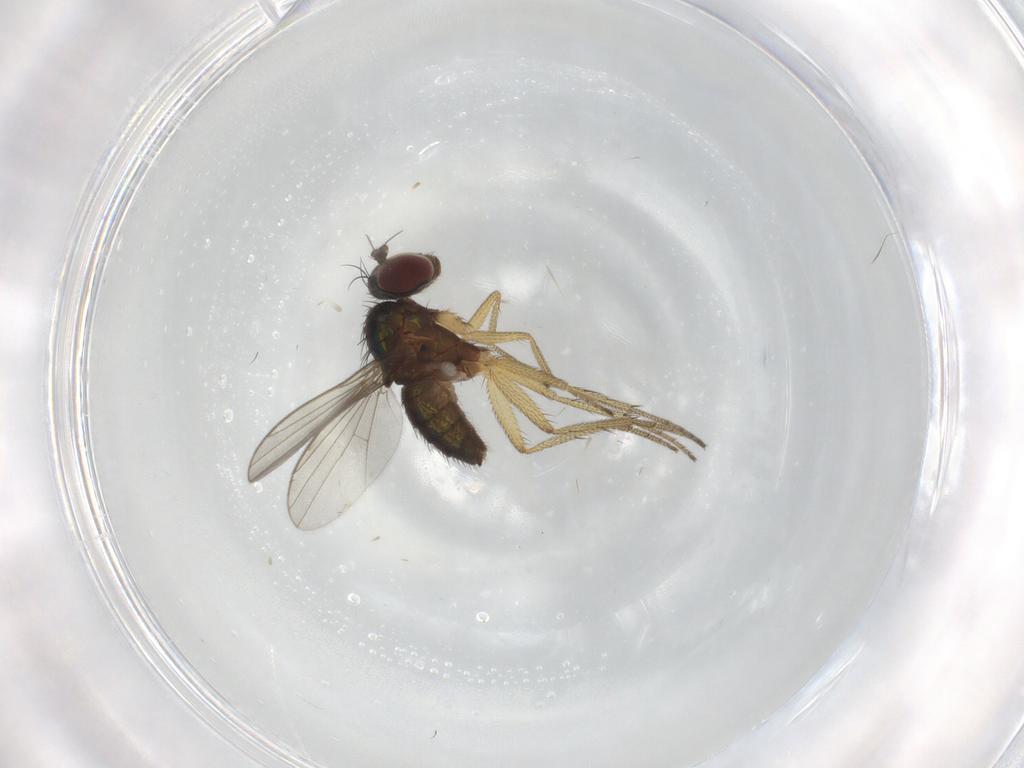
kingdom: Animalia
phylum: Arthropoda
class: Insecta
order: Diptera
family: Dolichopodidae
